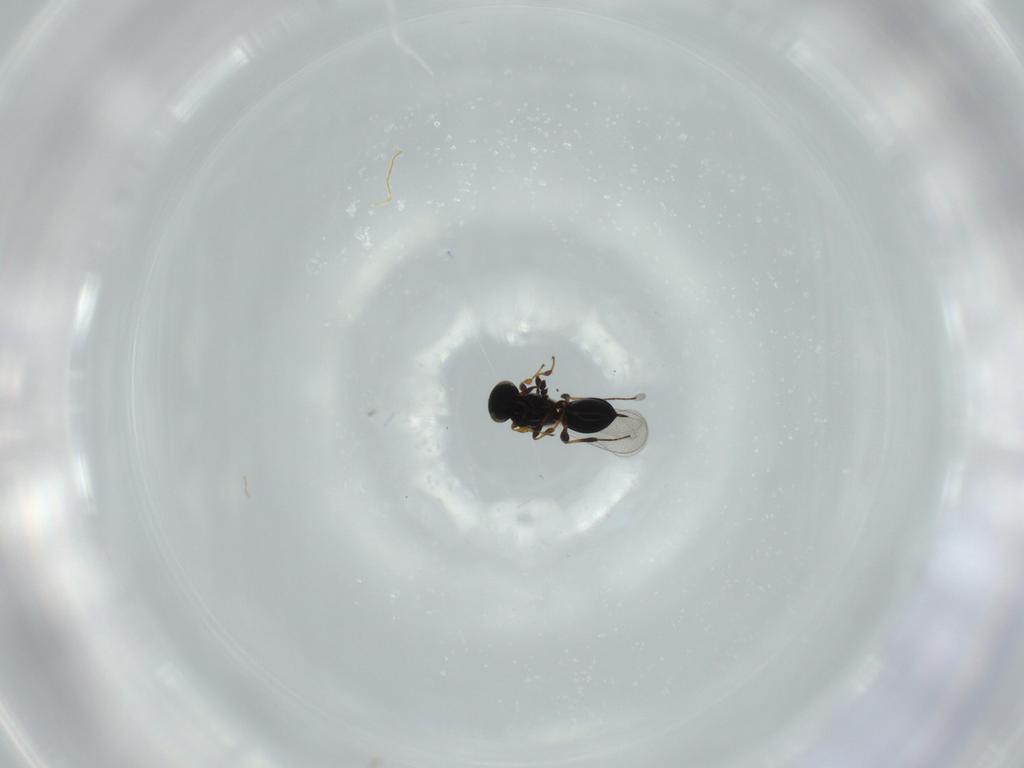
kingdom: Animalia
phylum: Arthropoda
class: Insecta
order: Hymenoptera
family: Platygastridae
